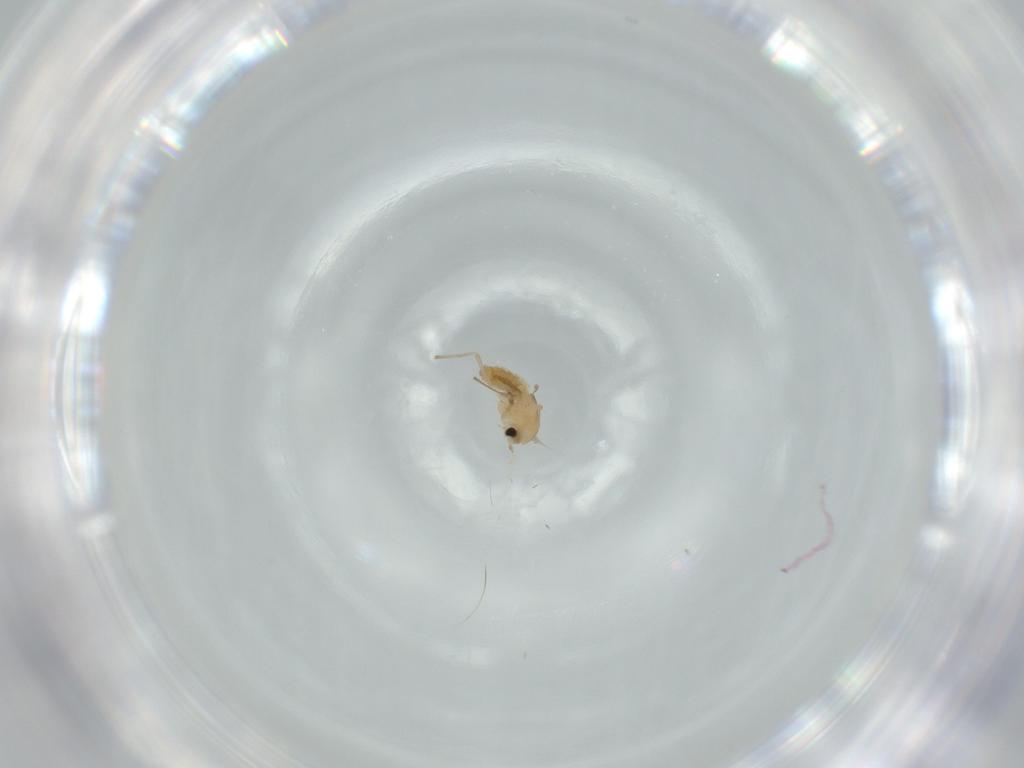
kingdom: Animalia
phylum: Arthropoda
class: Insecta
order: Diptera
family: Chironomidae
